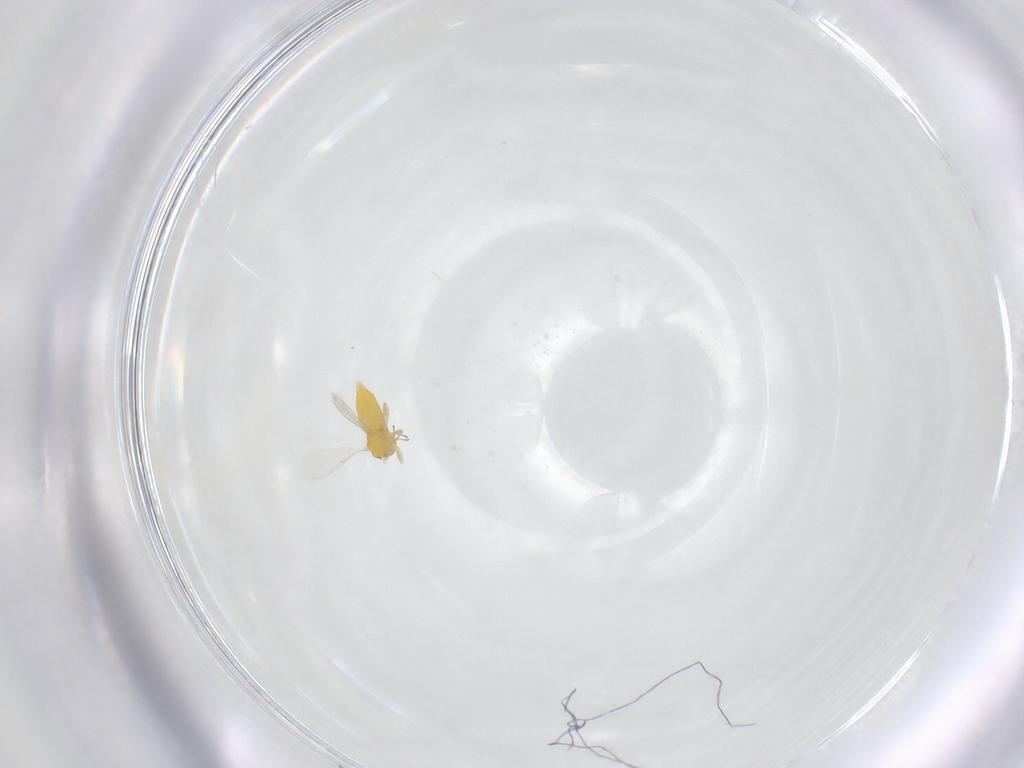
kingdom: Animalia
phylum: Arthropoda
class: Insecta
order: Hymenoptera
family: Aphelinidae
